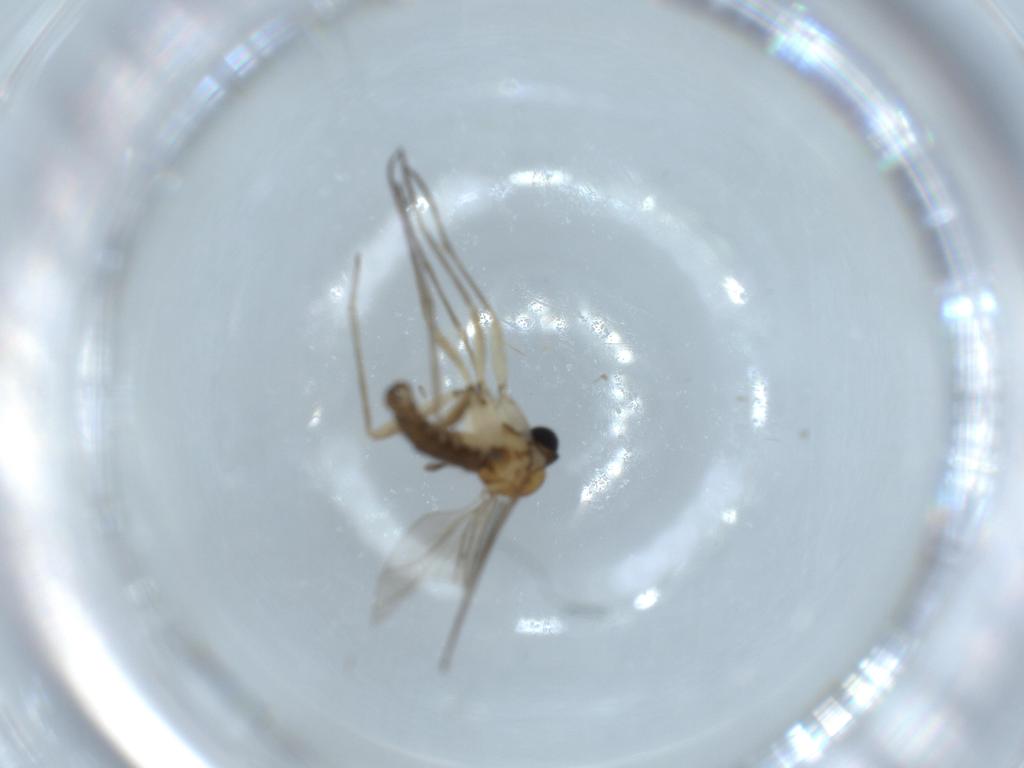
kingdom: Animalia
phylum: Arthropoda
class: Insecta
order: Diptera
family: Sciaridae
